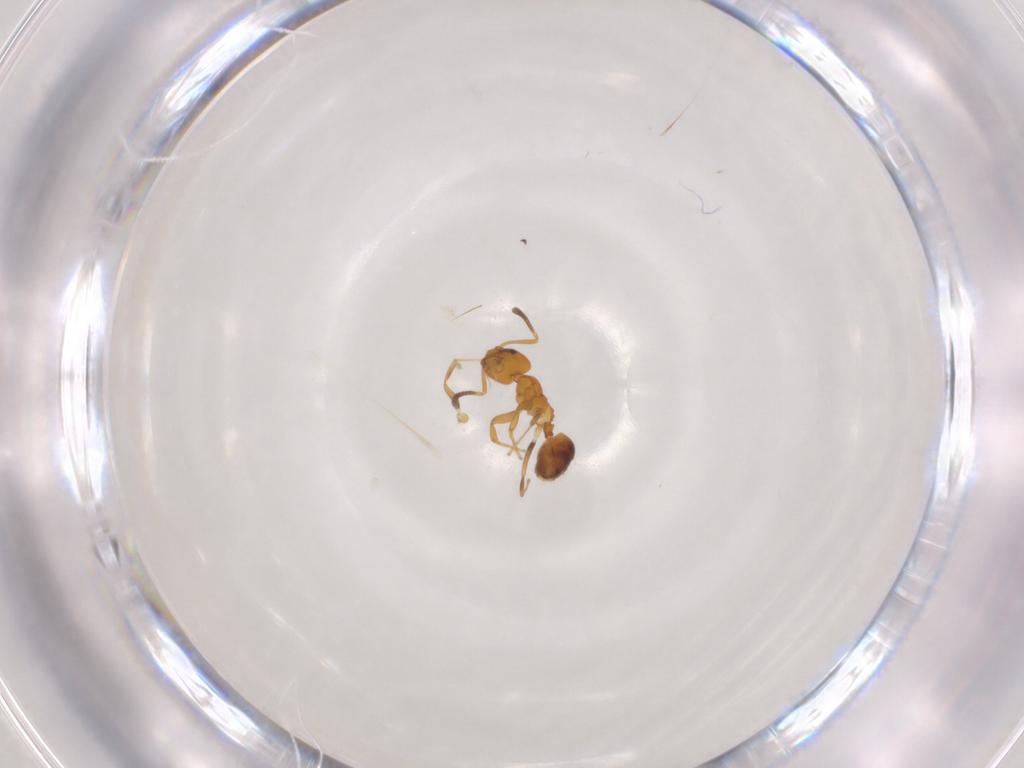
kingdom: Animalia
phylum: Arthropoda
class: Insecta
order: Hymenoptera
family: Formicidae
